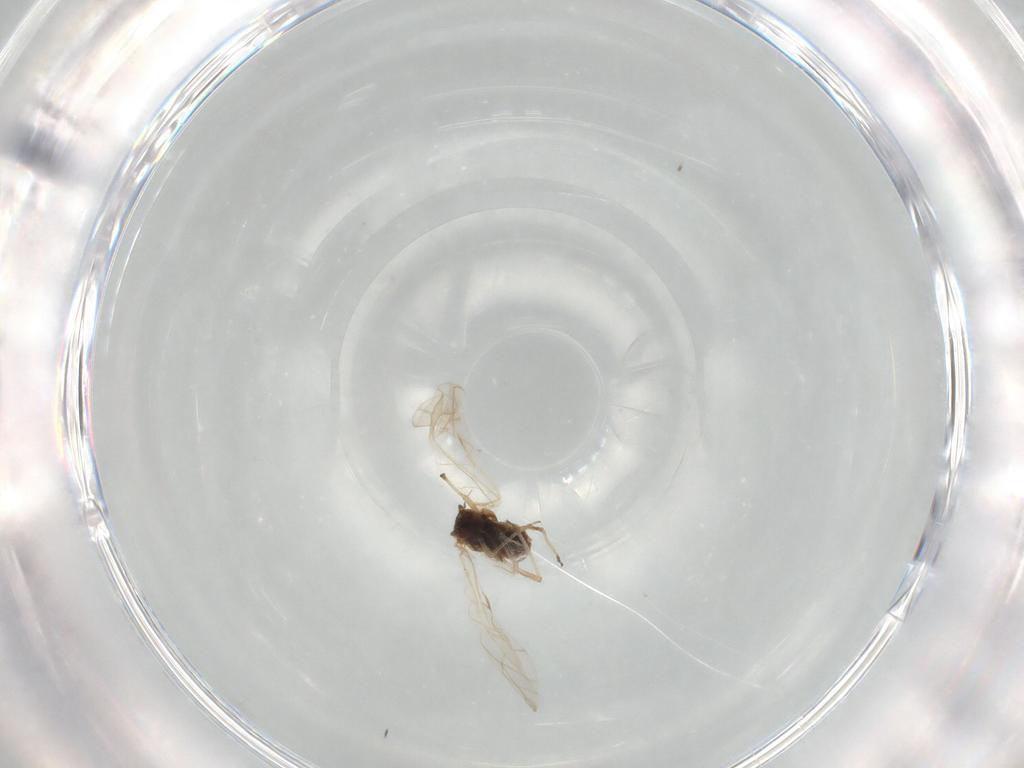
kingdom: Animalia
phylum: Arthropoda
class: Insecta
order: Hemiptera
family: Aphididae
